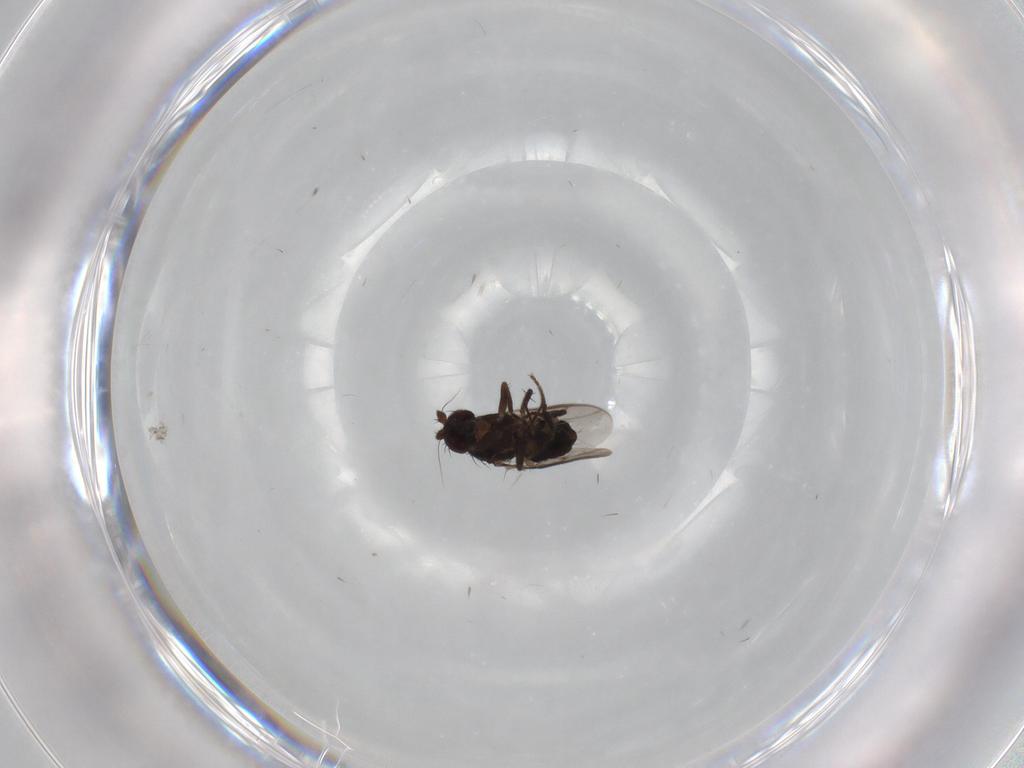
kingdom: Animalia
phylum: Arthropoda
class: Insecta
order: Diptera
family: Sphaeroceridae
